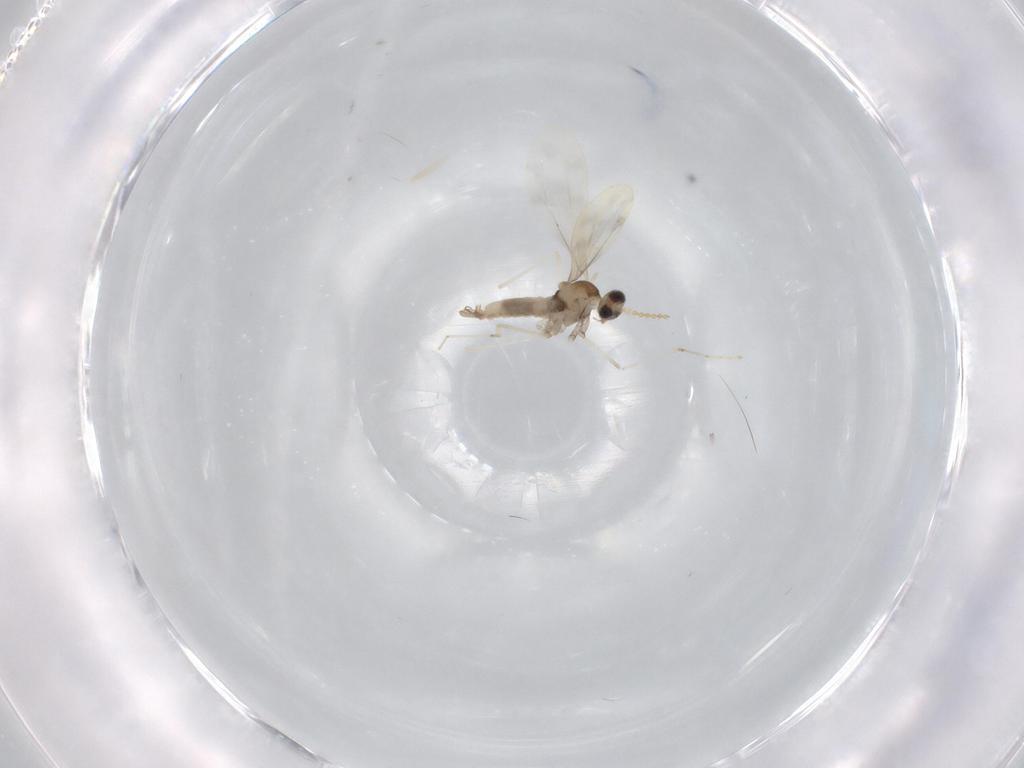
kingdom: Animalia
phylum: Arthropoda
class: Insecta
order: Diptera
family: Cecidomyiidae
